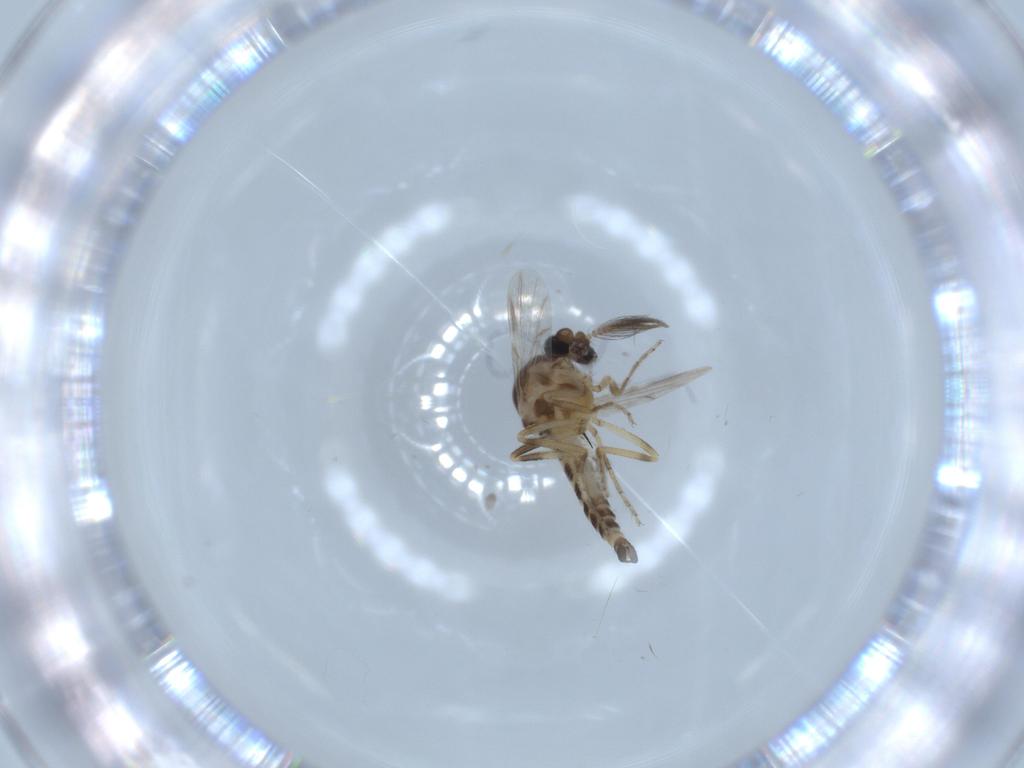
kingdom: Animalia
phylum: Arthropoda
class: Insecta
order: Diptera
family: Ceratopogonidae
